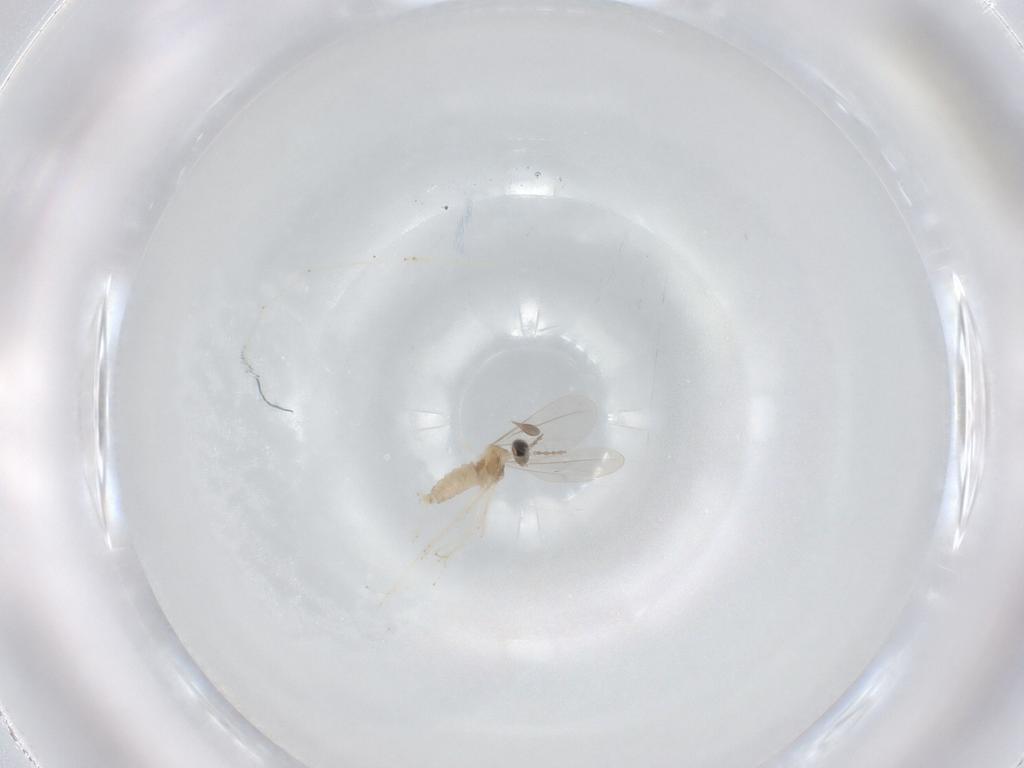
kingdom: Animalia
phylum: Arthropoda
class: Insecta
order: Diptera
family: Cecidomyiidae
